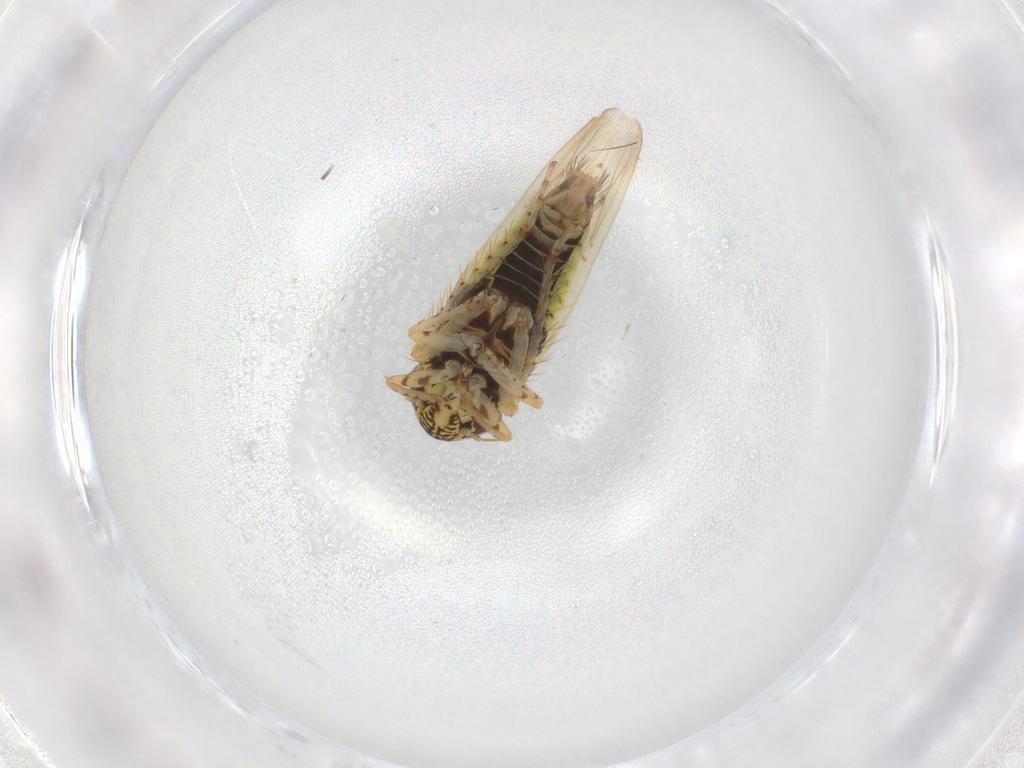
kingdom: Animalia
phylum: Arthropoda
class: Insecta
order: Hemiptera
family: Cicadellidae
